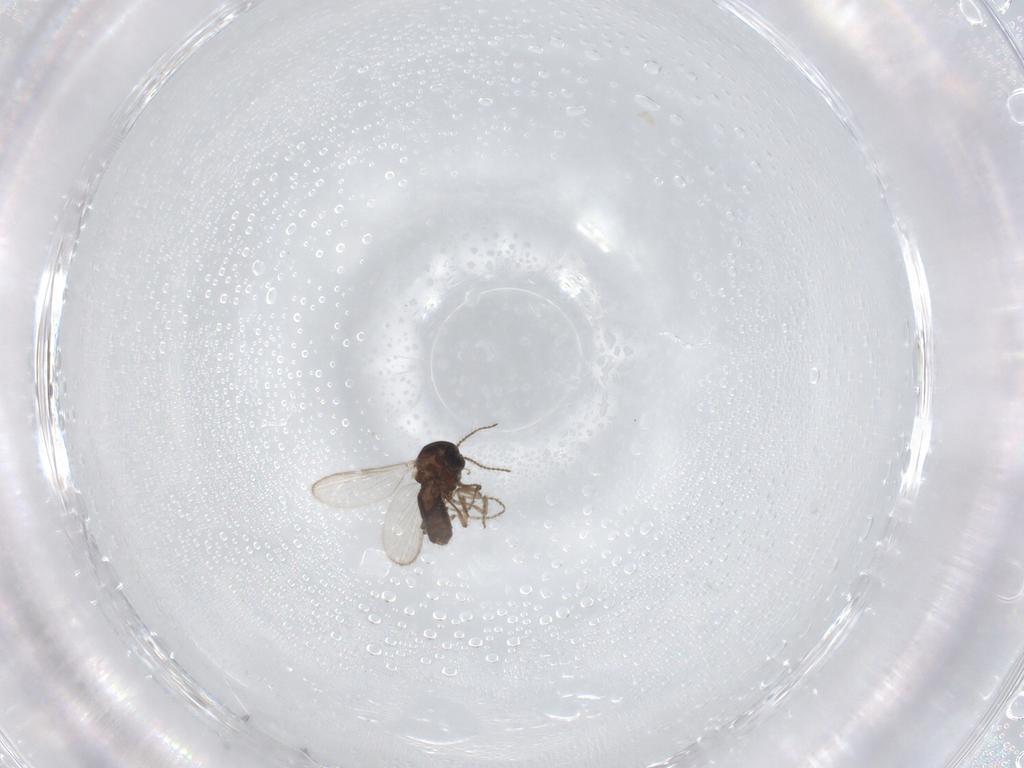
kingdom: Animalia
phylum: Arthropoda
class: Insecta
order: Diptera
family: Ceratopogonidae
